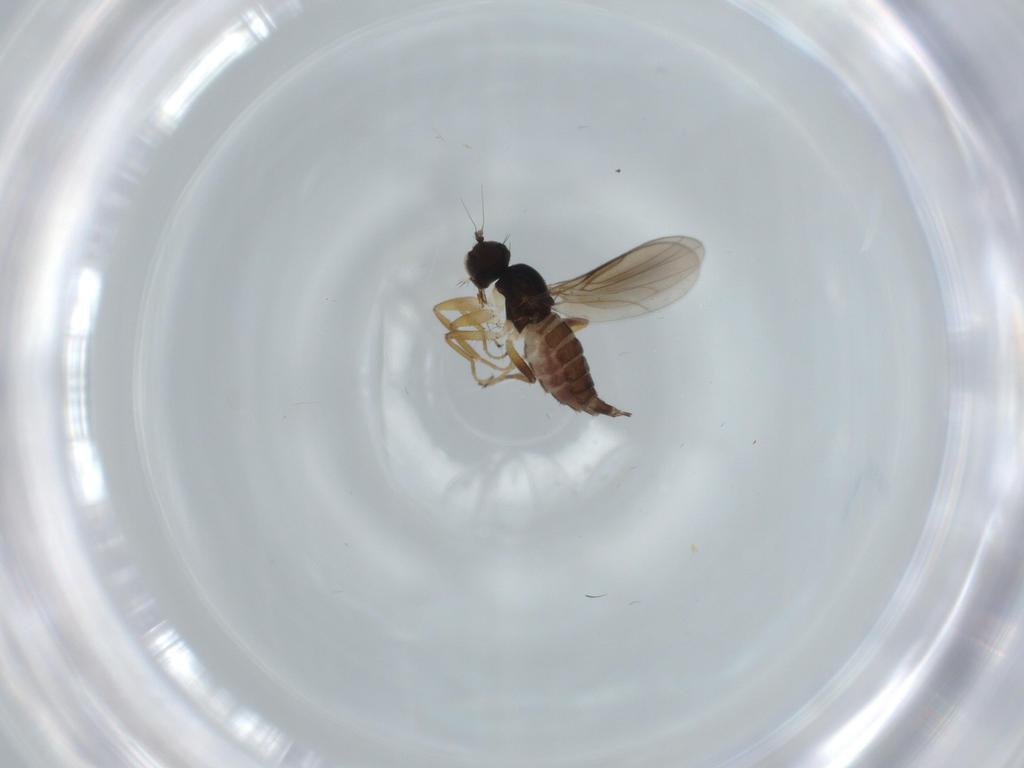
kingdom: Animalia
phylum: Arthropoda
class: Insecta
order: Diptera
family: Hybotidae
